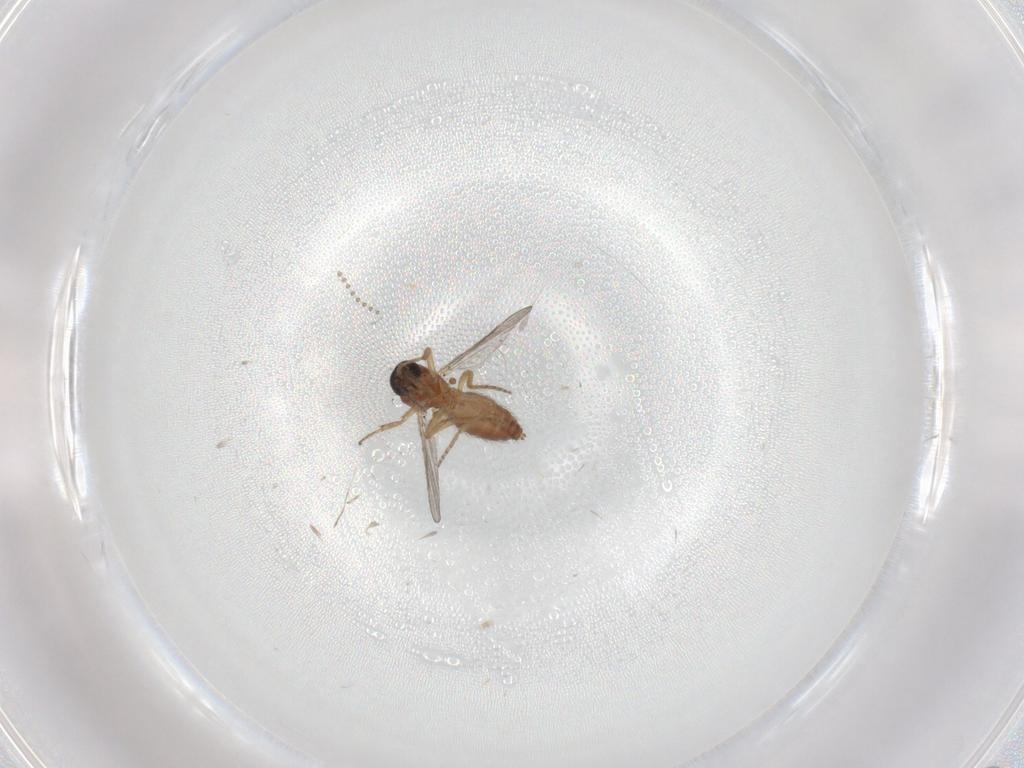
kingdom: Animalia
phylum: Arthropoda
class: Insecta
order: Diptera
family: Ceratopogonidae
